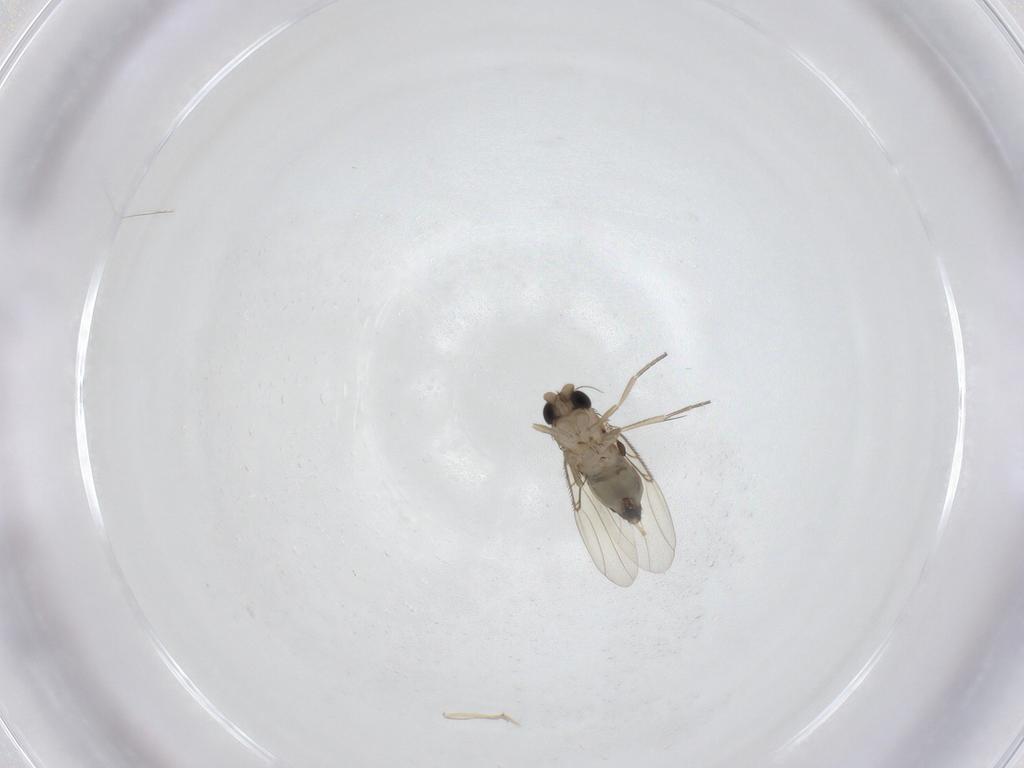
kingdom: Animalia
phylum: Arthropoda
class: Insecta
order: Diptera
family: Phoridae
